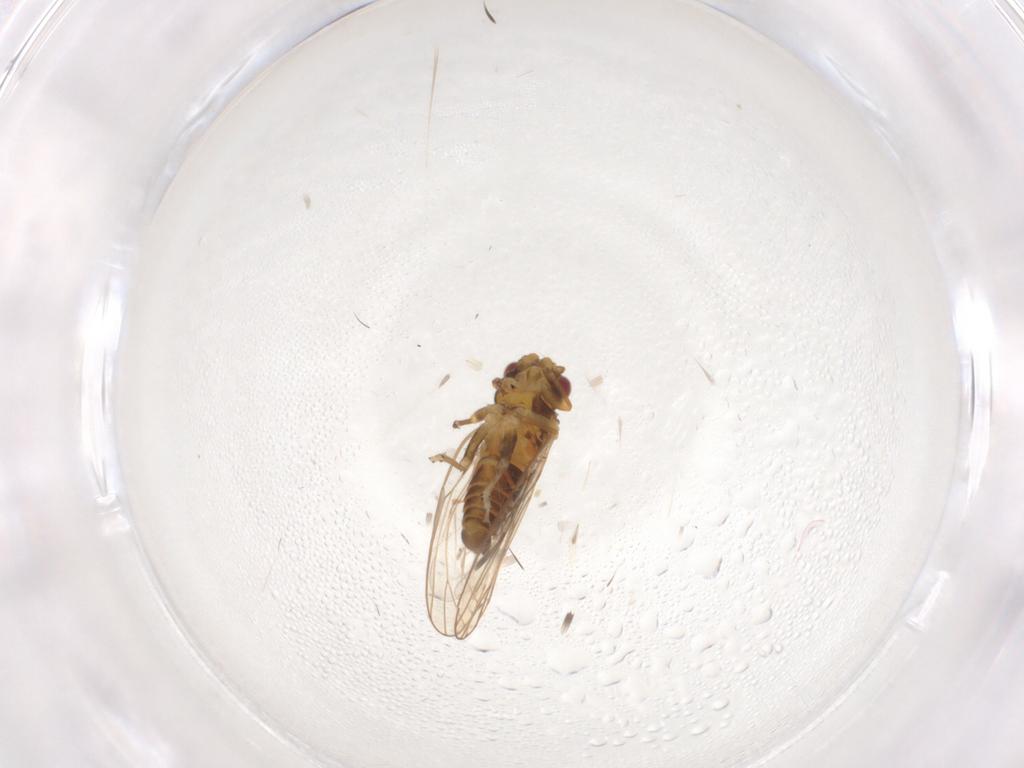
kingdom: Animalia
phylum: Arthropoda
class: Insecta
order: Hemiptera
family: Psyllidae
